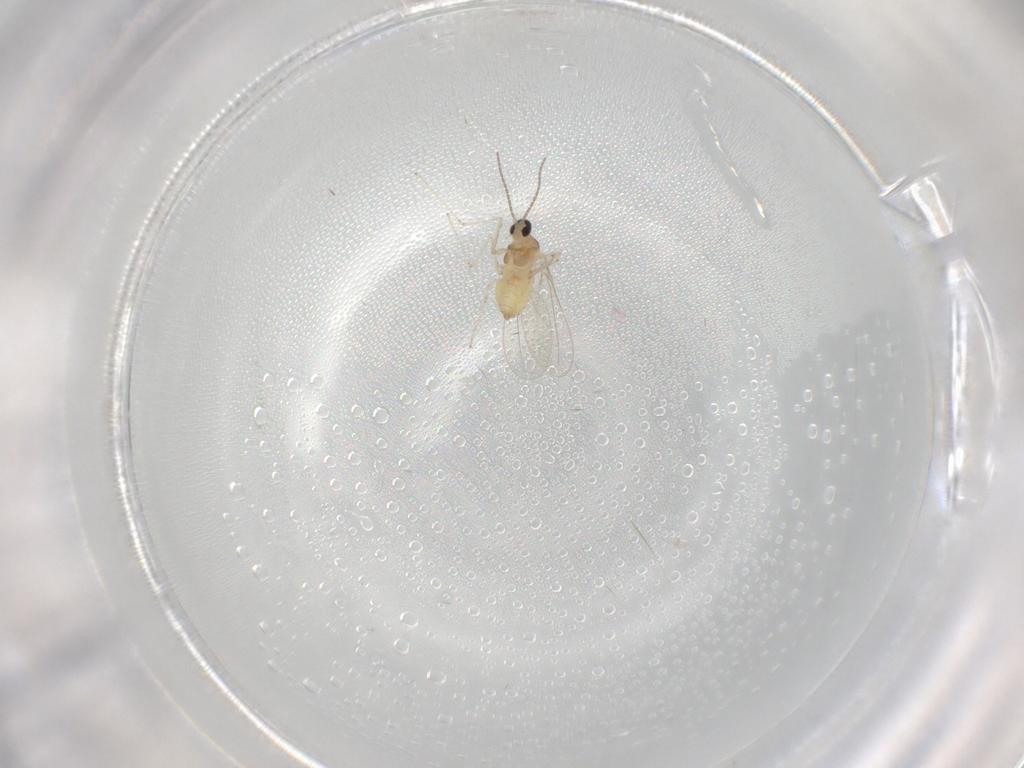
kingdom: Animalia
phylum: Arthropoda
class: Insecta
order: Diptera
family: Cecidomyiidae
